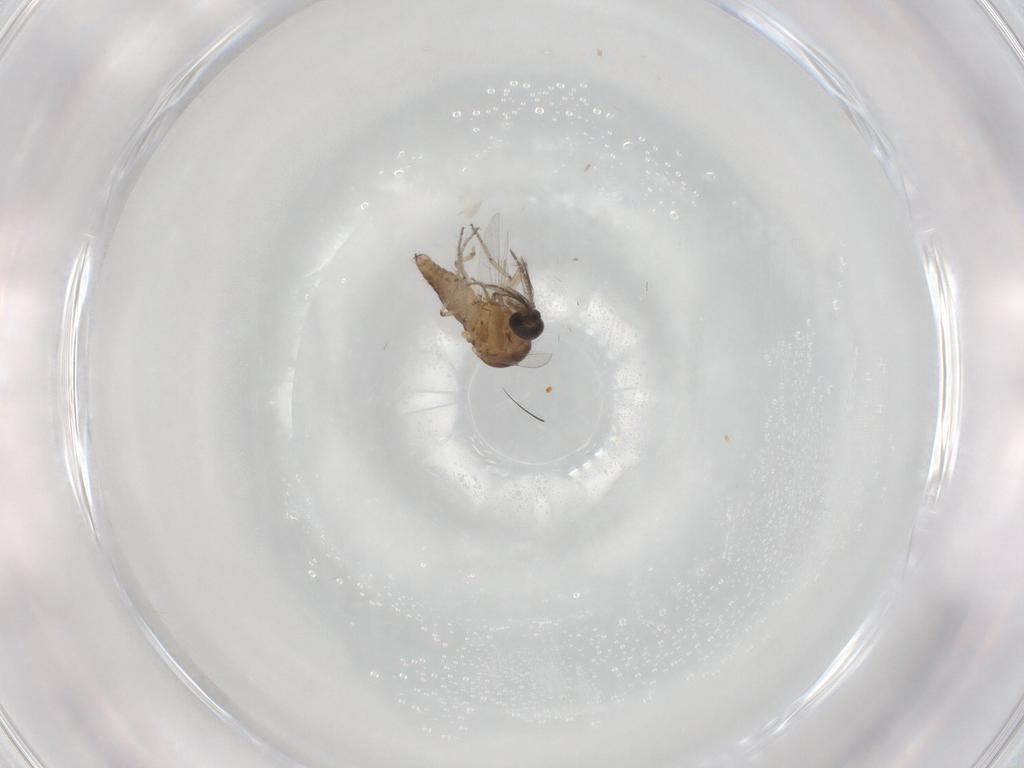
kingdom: Animalia
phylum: Arthropoda
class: Insecta
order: Diptera
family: Ceratopogonidae
